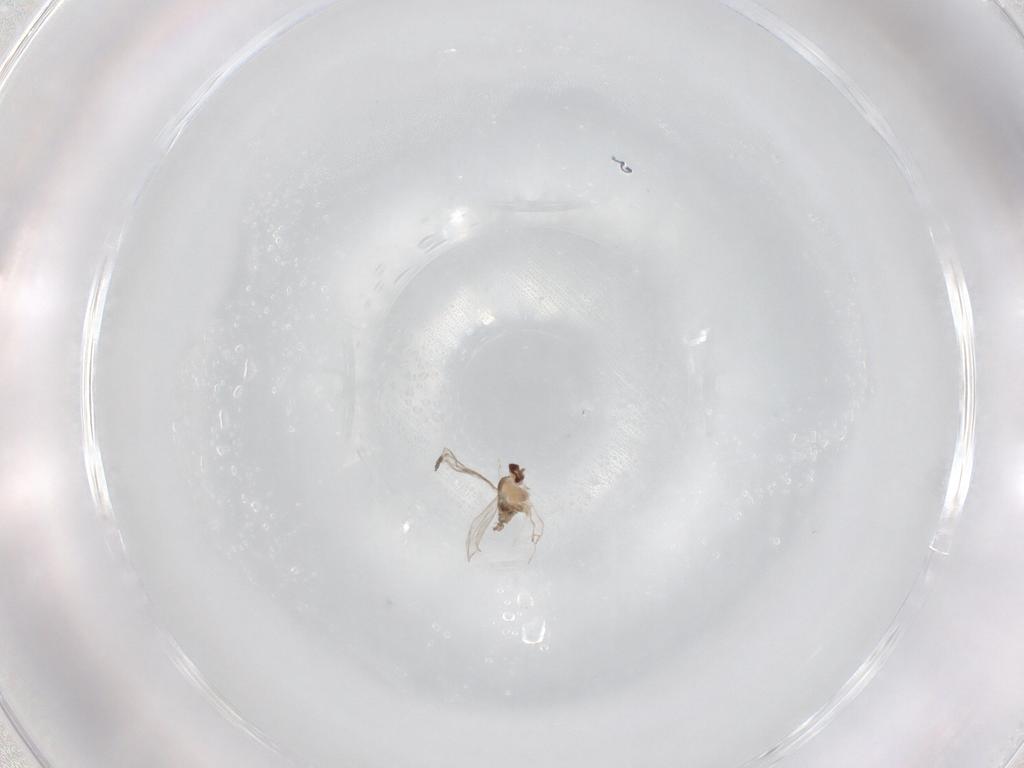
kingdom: Animalia
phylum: Arthropoda
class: Insecta
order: Diptera
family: Cecidomyiidae
